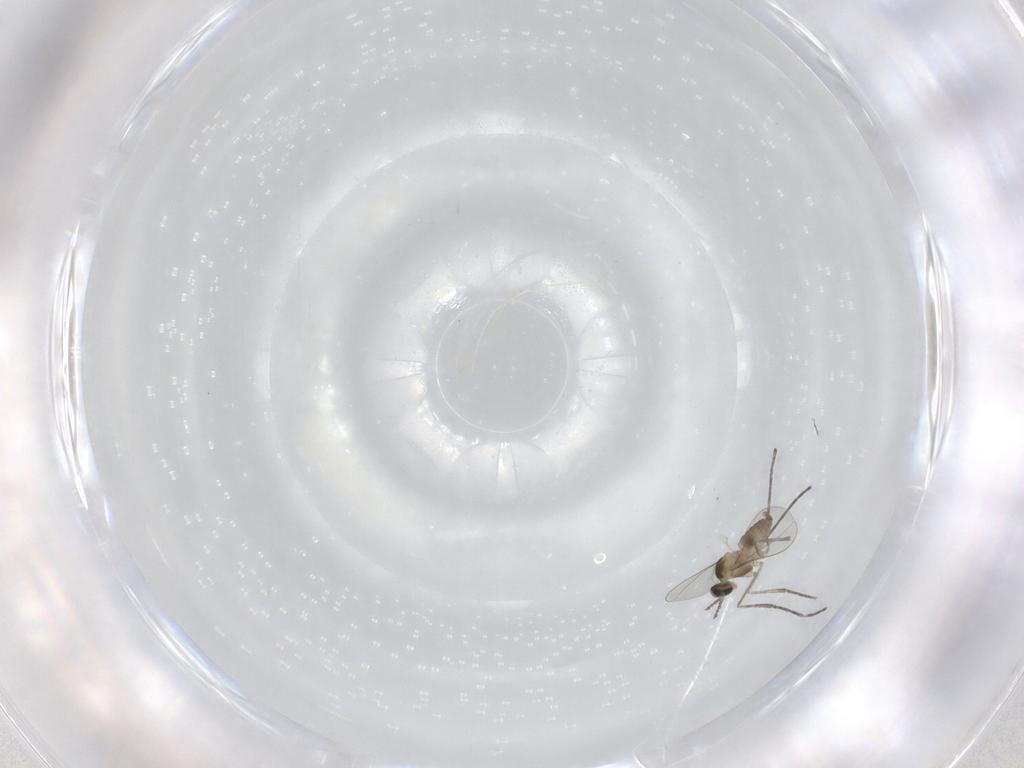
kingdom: Animalia
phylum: Arthropoda
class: Insecta
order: Diptera
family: Cecidomyiidae
